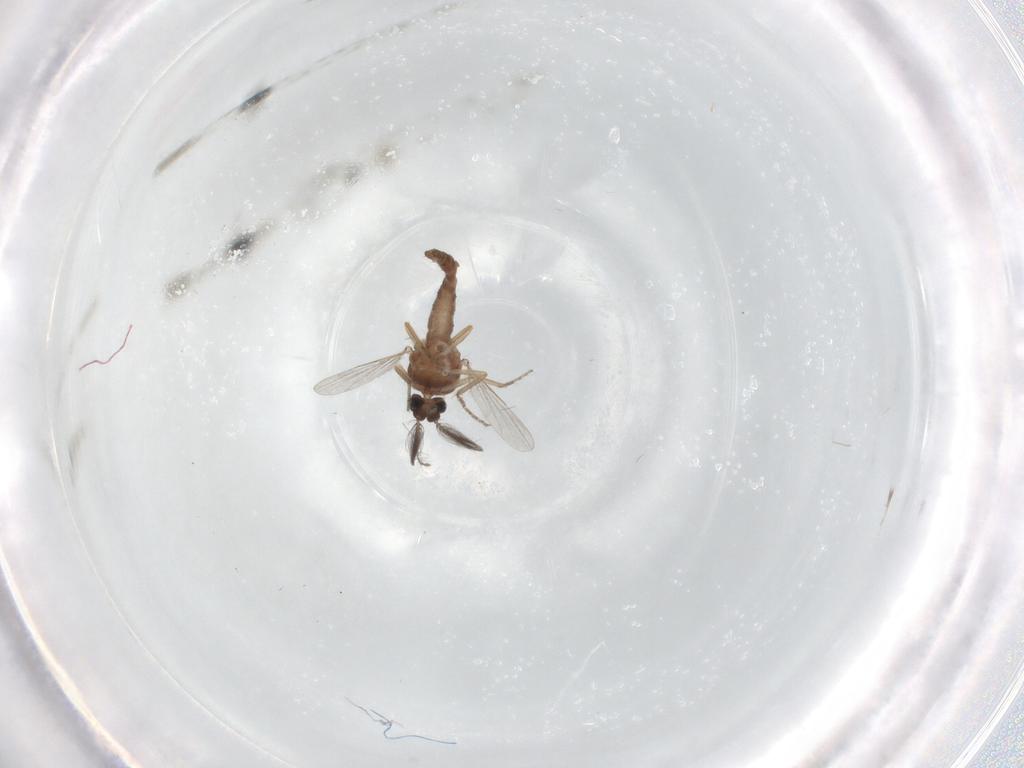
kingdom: Animalia
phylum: Arthropoda
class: Insecta
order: Diptera
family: Ceratopogonidae
